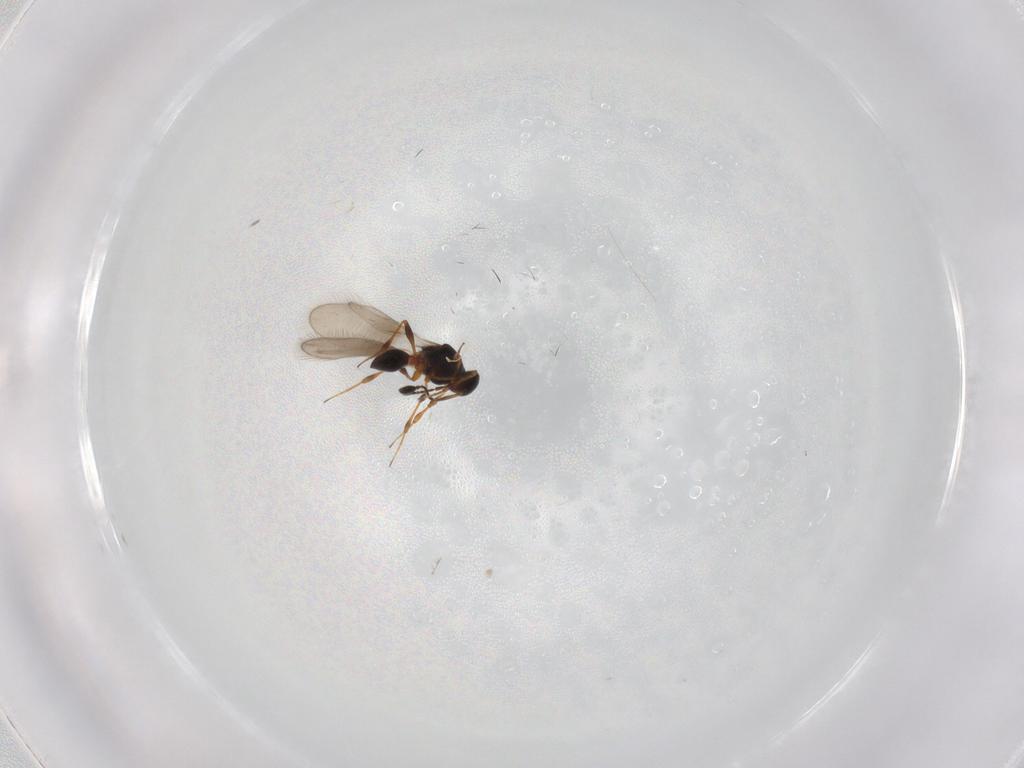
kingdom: Animalia
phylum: Arthropoda
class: Insecta
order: Hymenoptera
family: Platygastridae
